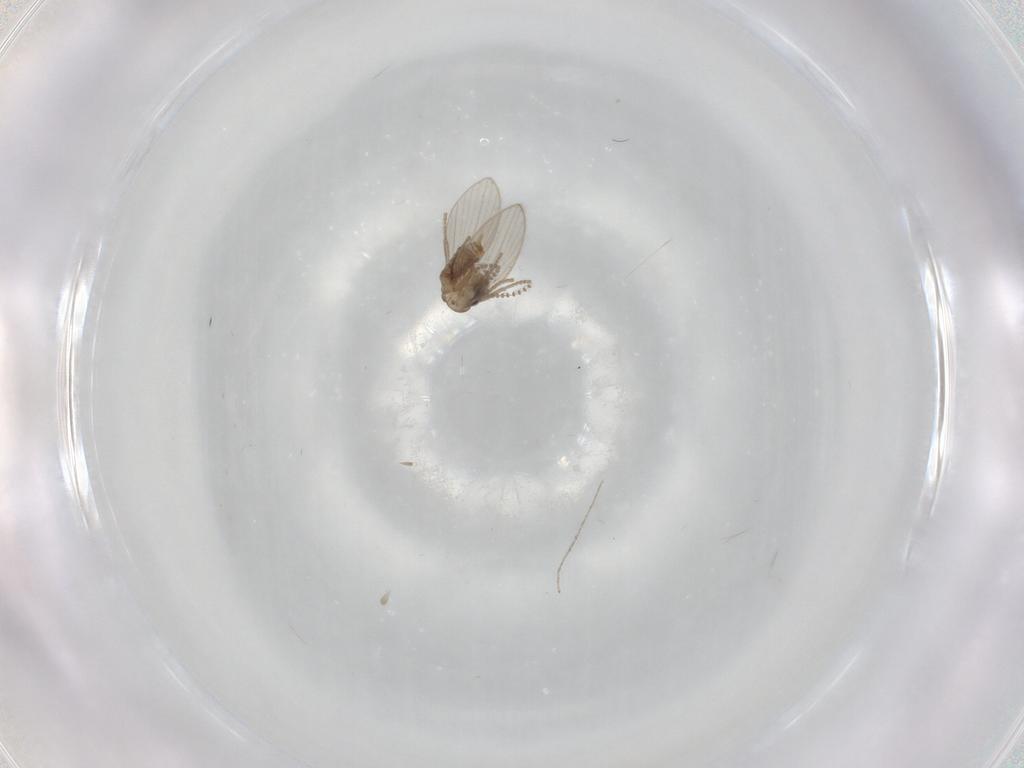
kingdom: Animalia
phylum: Arthropoda
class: Insecta
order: Diptera
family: Psychodidae
